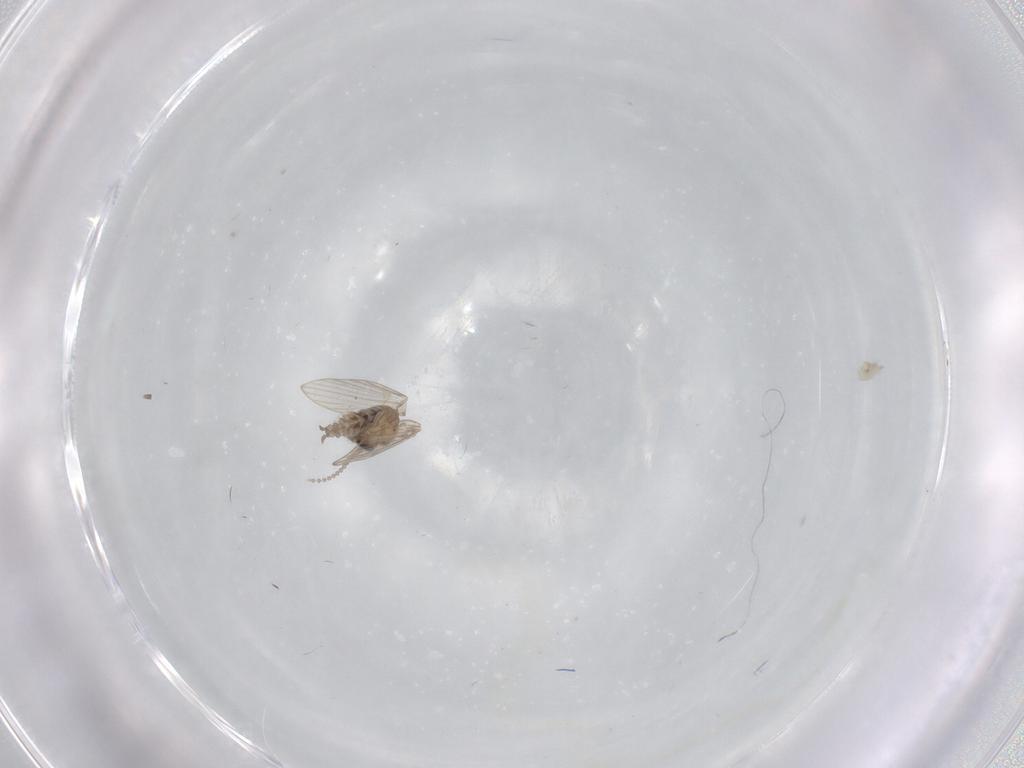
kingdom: Animalia
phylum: Arthropoda
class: Insecta
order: Diptera
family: Psychodidae
